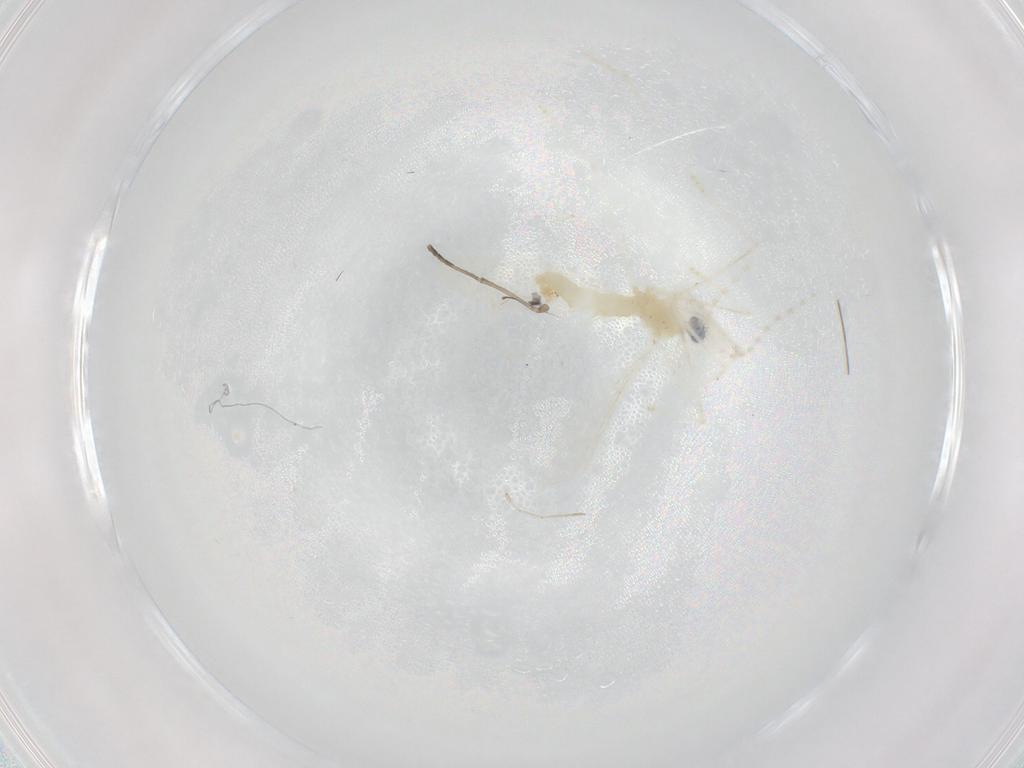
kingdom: Animalia
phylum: Arthropoda
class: Insecta
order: Diptera
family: Cecidomyiidae
